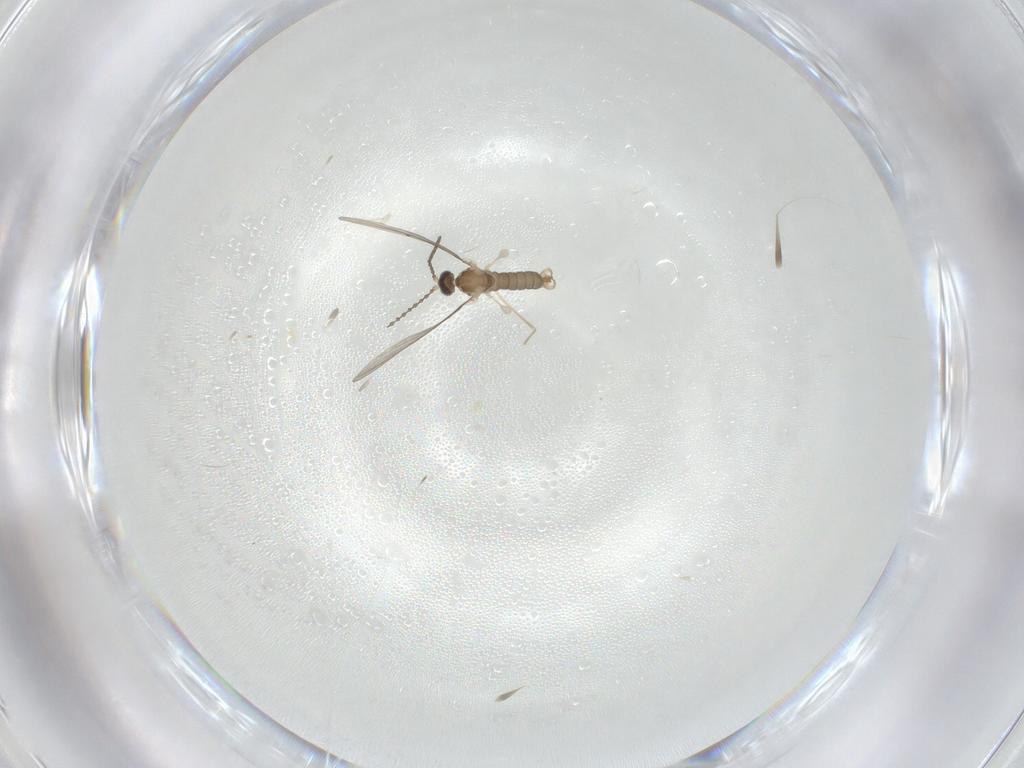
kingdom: Animalia
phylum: Arthropoda
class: Insecta
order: Diptera
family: Cecidomyiidae
